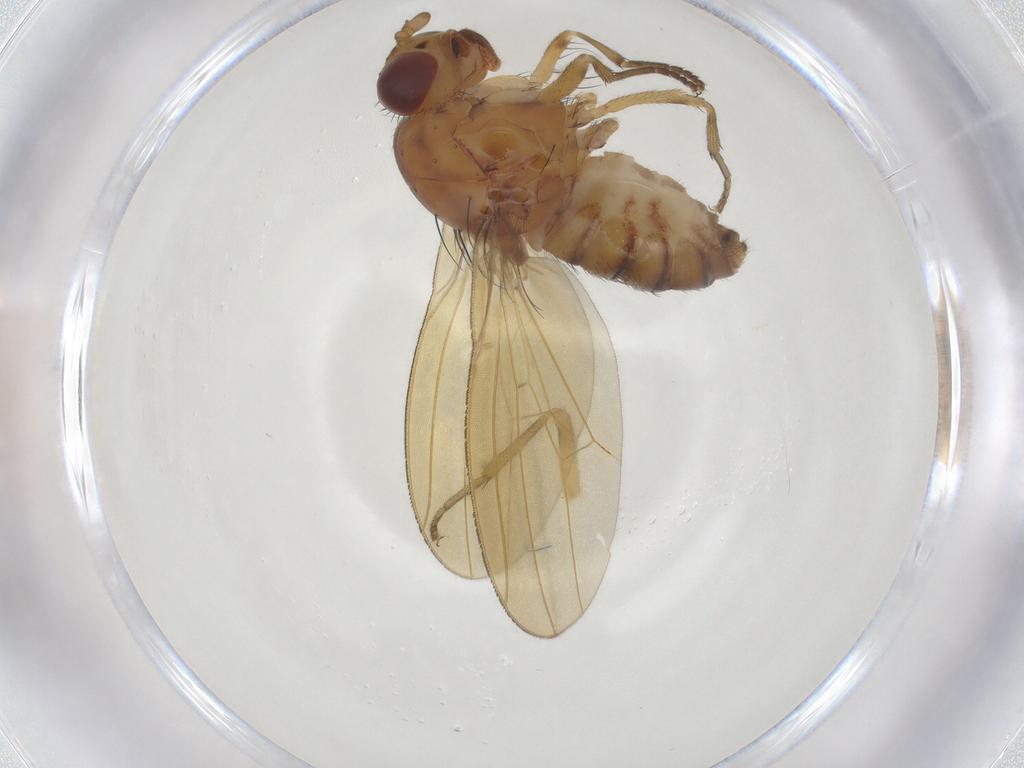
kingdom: Animalia
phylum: Arthropoda
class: Insecta
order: Diptera
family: Lauxaniidae
